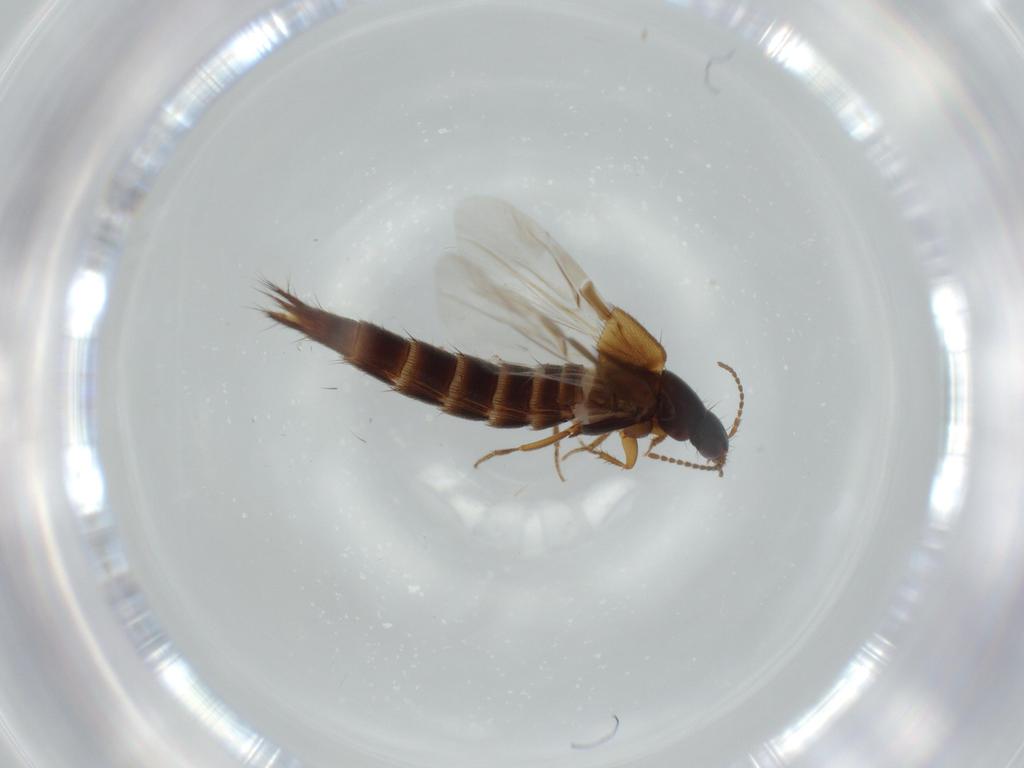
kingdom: Animalia
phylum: Arthropoda
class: Insecta
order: Coleoptera
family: Staphylinidae
